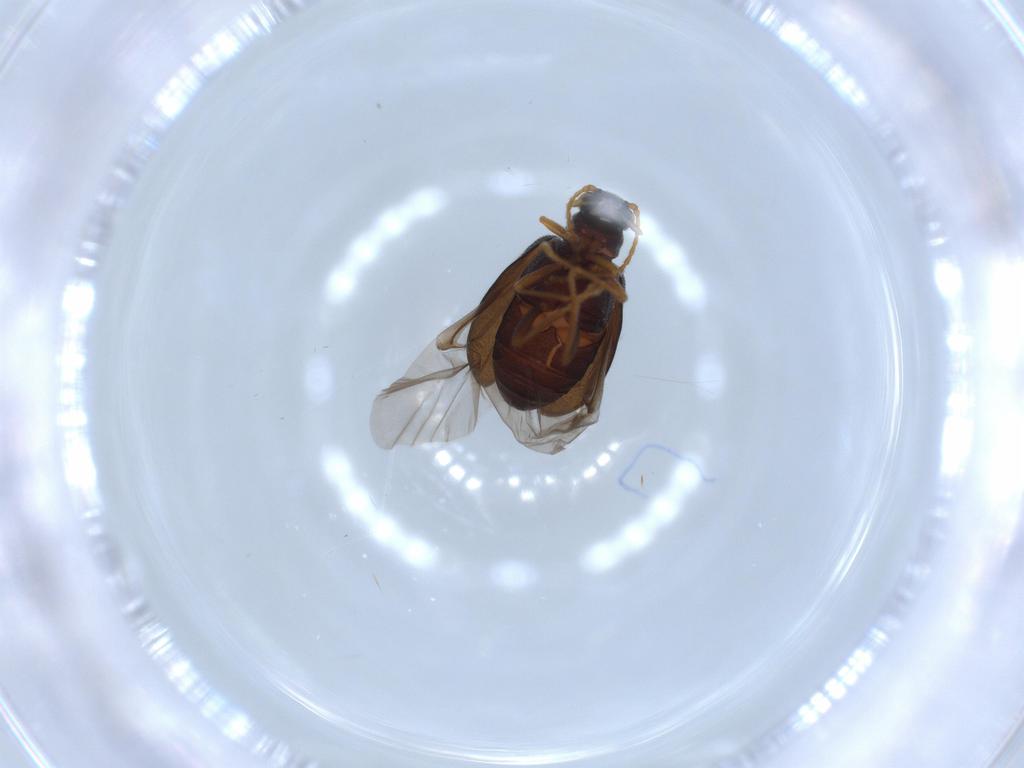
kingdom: Animalia
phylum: Arthropoda
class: Insecta
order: Coleoptera
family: Aderidae
